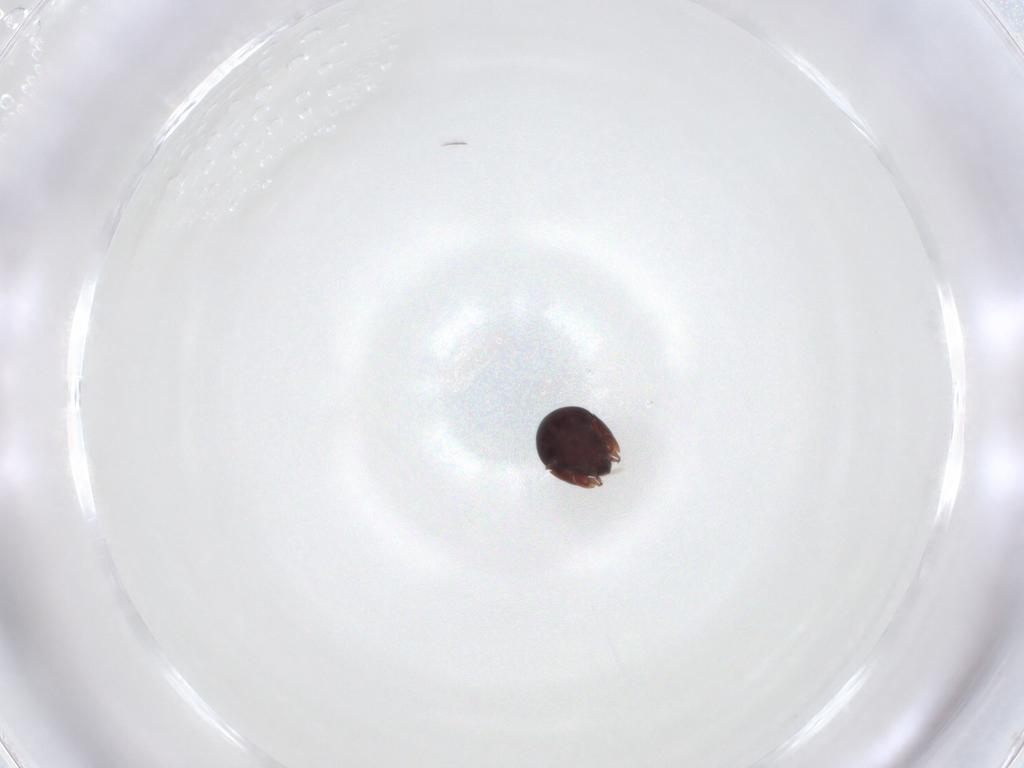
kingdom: Animalia
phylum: Arthropoda
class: Arachnida
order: Sarcoptiformes
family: Galumnidae
